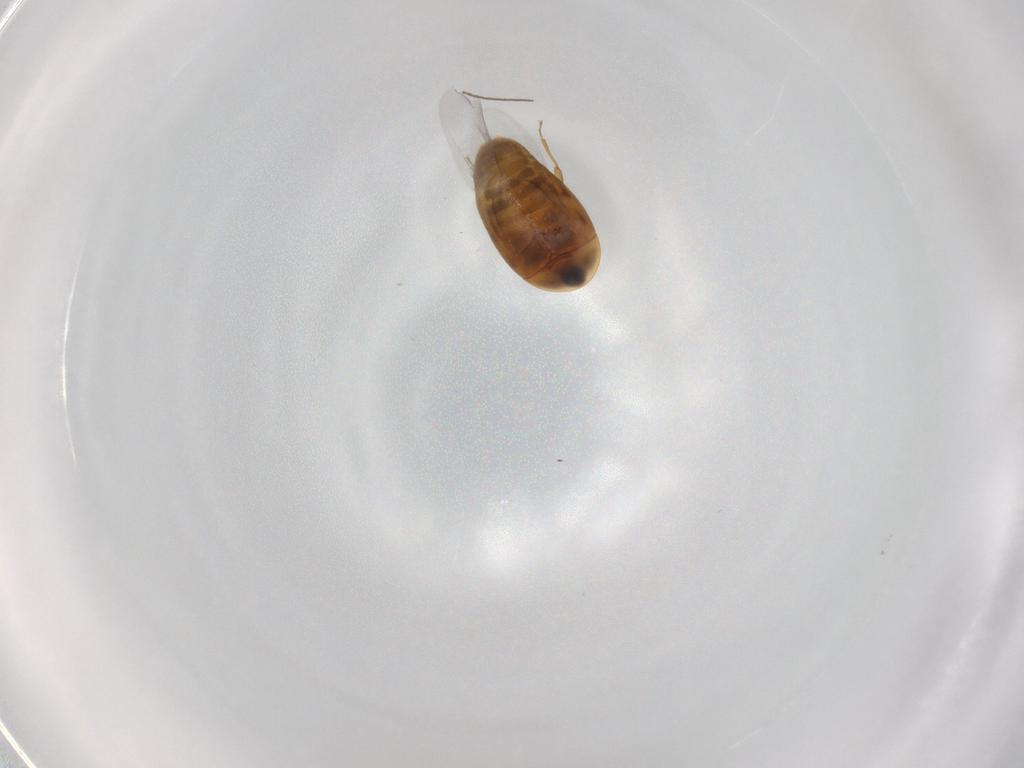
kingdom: Animalia
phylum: Arthropoda
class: Insecta
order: Coleoptera
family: Corylophidae
